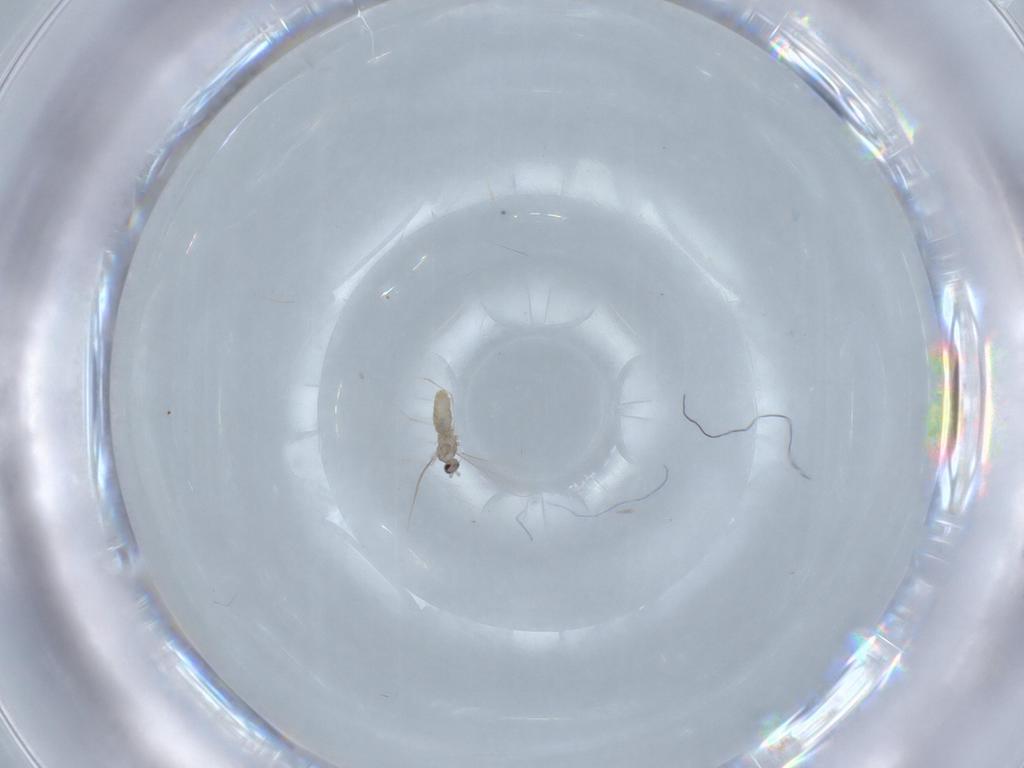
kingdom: Animalia
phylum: Arthropoda
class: Insecta
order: Diptera
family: Cecidomyiidae
